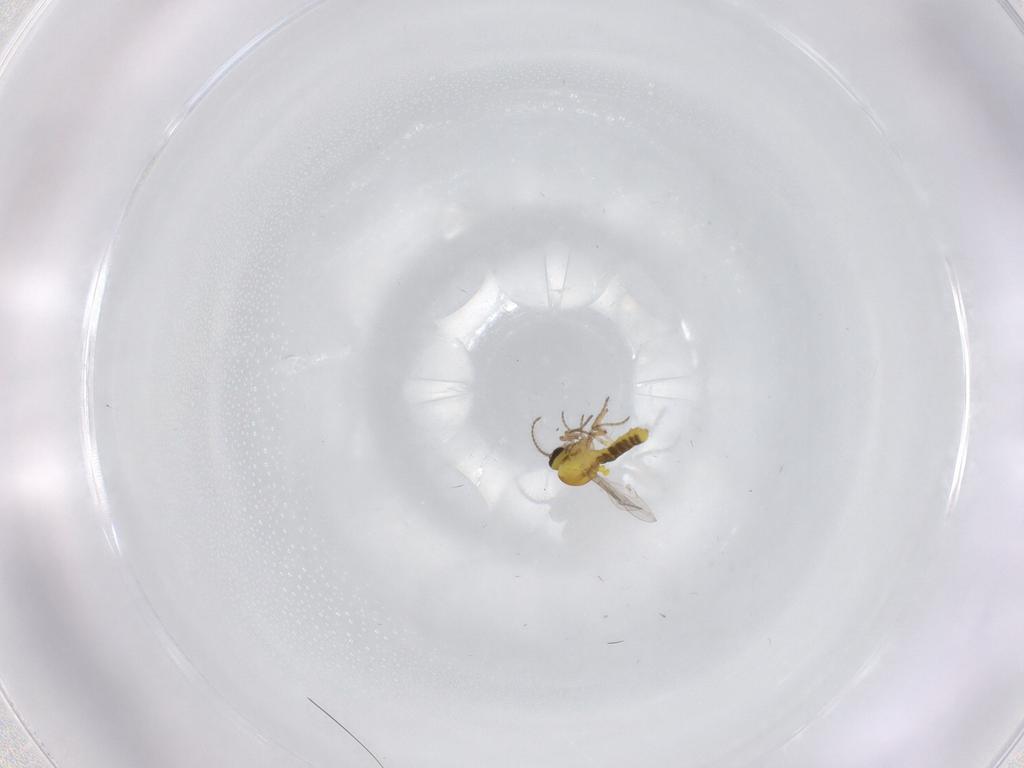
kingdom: Animalia
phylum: Arthropoda
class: Insecta
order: Diptera
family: Ceratopogonidae
